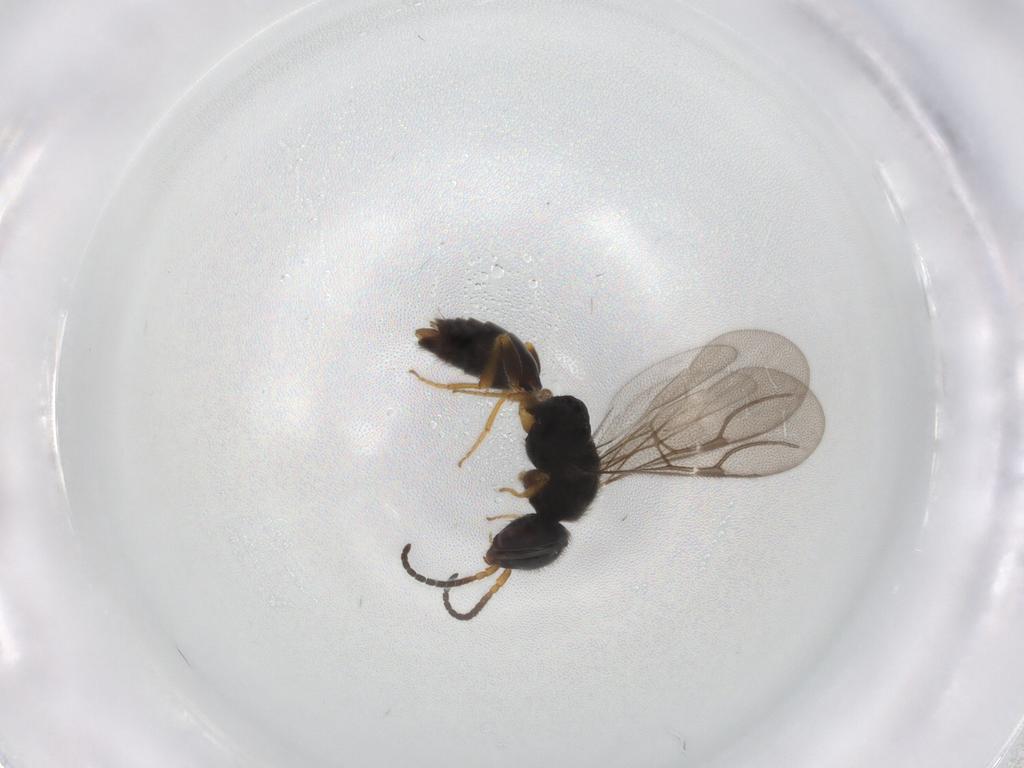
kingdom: Animalia
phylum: Arthropoda
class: Insecta
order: Hymenoptera
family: Bethylidae
